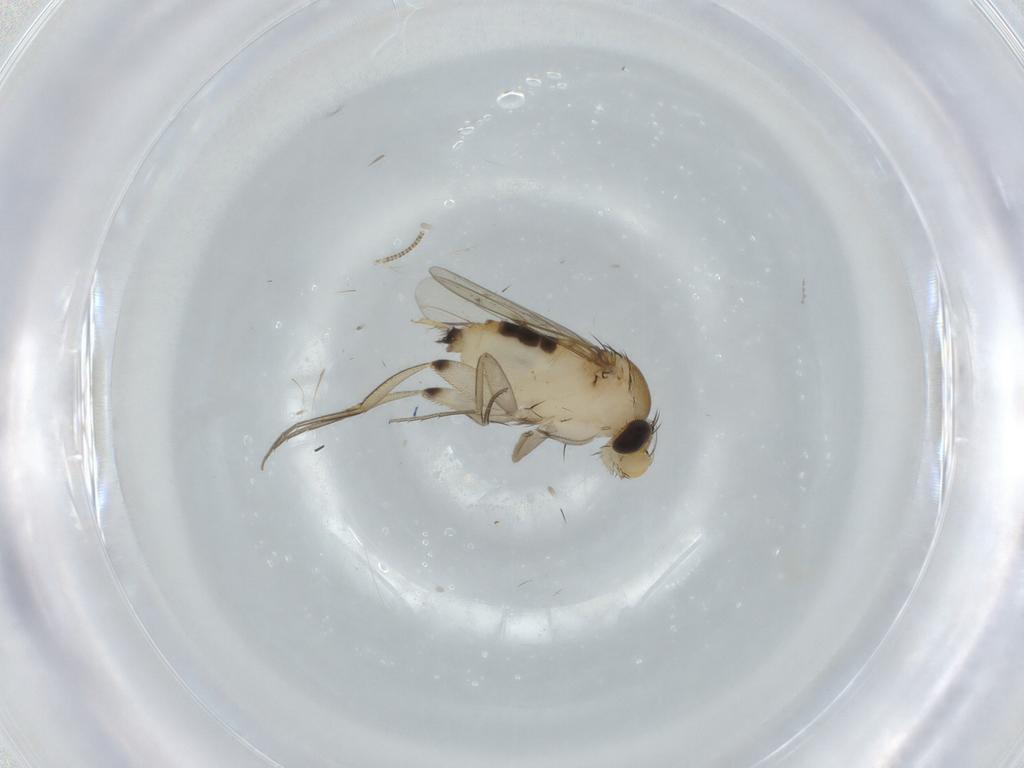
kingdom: Animalia
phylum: Arthropoda
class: Insecta
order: Diptera
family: Phoridae
